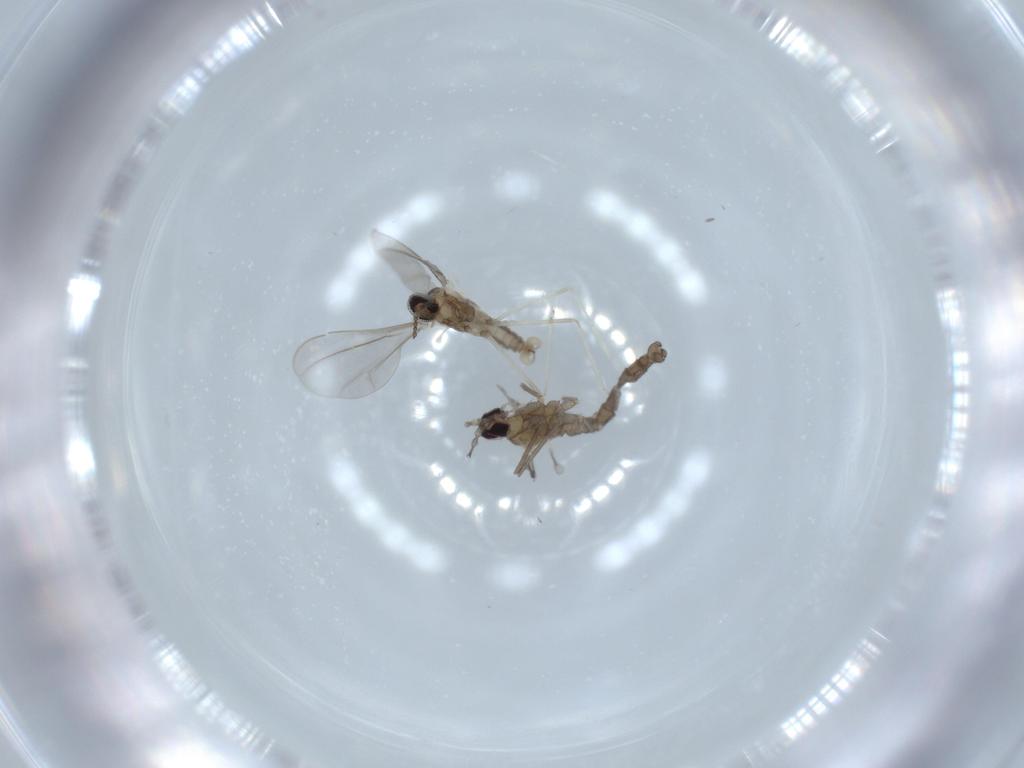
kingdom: Animalia
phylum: Arthropoda
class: Insecta
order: Diptera
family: Cecidomyiidae
